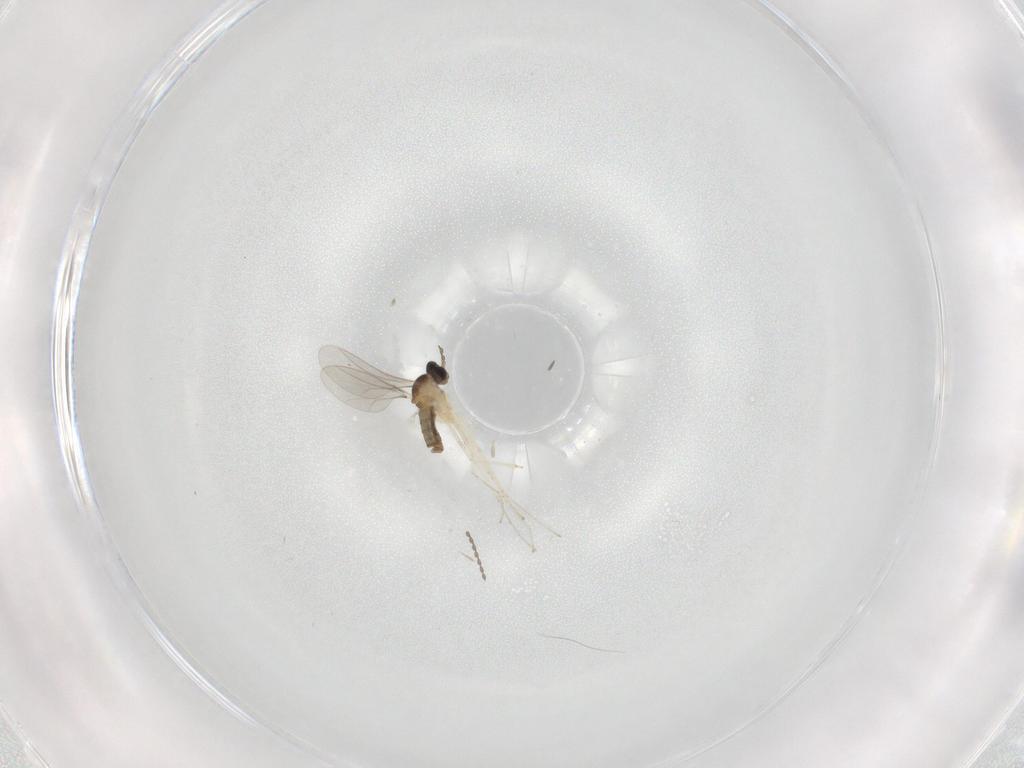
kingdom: Animalia
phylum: Arthropoda
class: Insecta
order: Diptera
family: Cecidomyiidae
